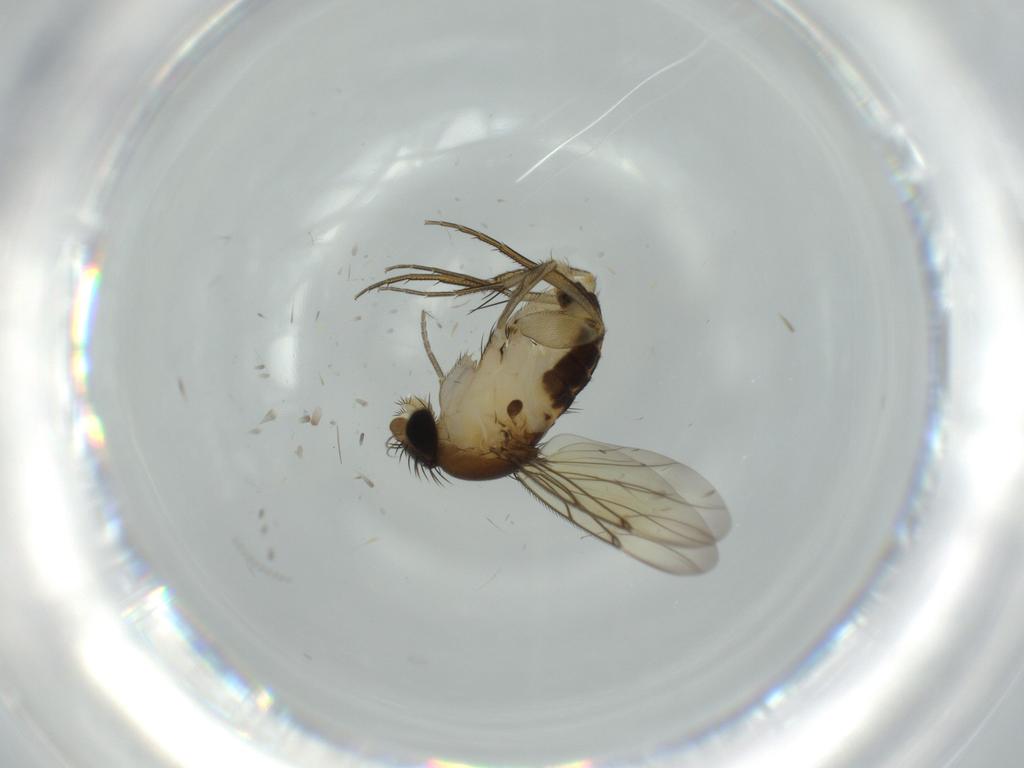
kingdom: Animalia
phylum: Arthropoda
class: Insecta
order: Diptera
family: Cecidomyiidae
